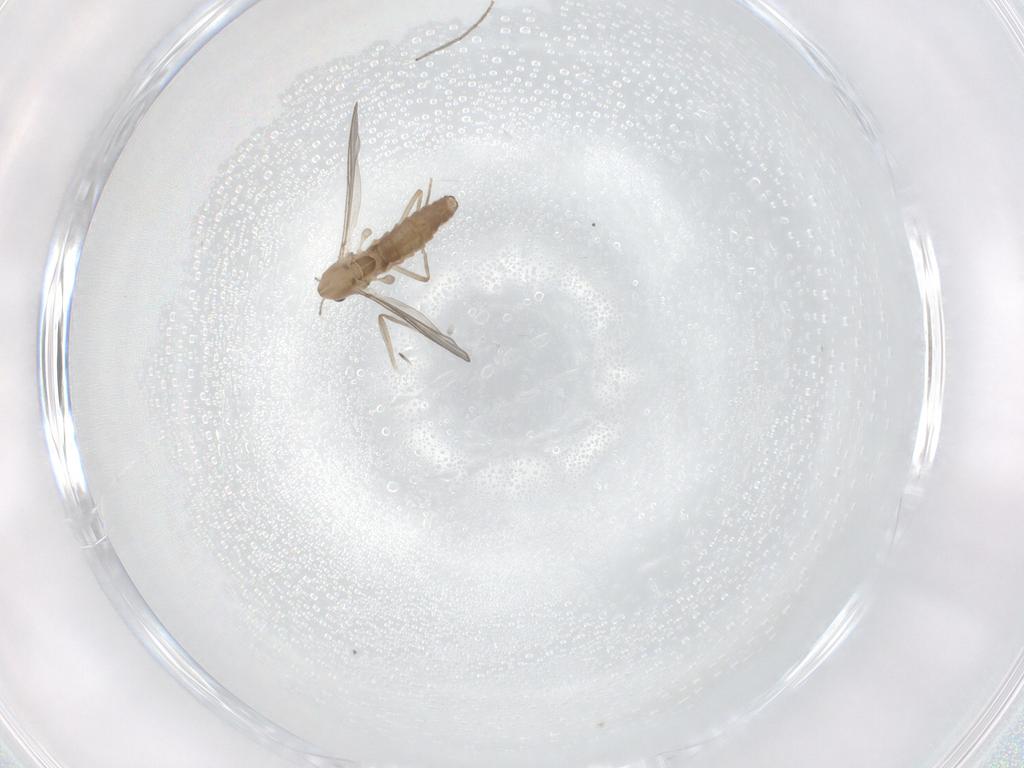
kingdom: Animalia
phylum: Arthropoda
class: Insecta
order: Diptera
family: Chironomidae
